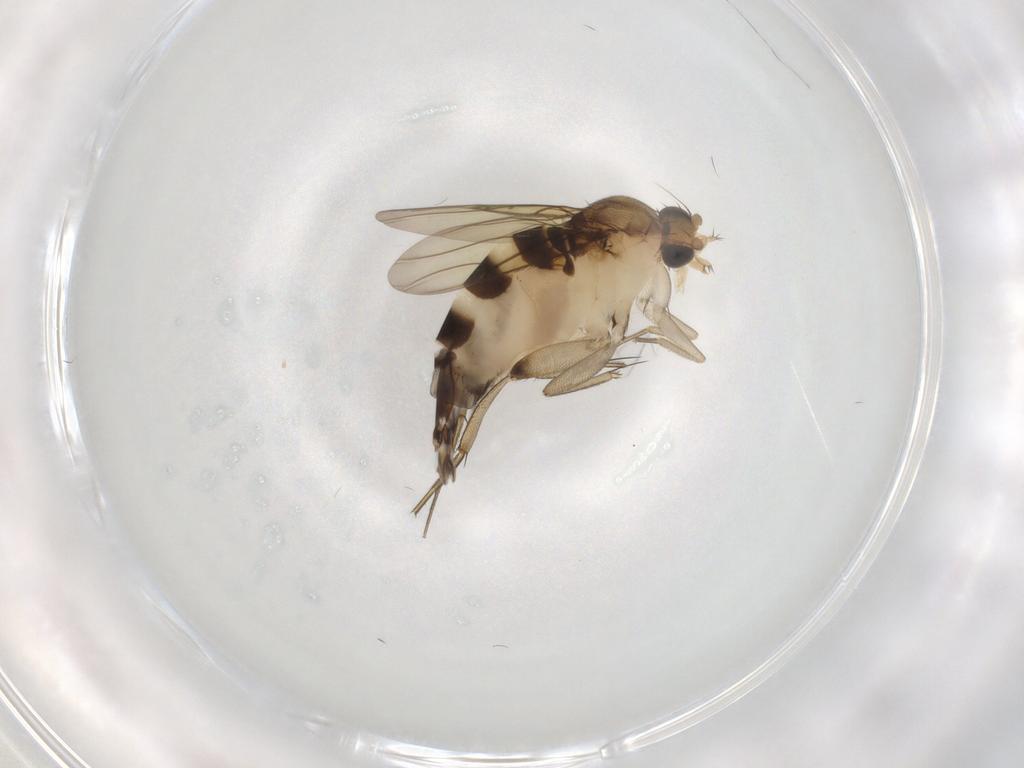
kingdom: Animalia
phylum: Arthropoda
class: Insecta
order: Diptera
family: Phoridae
